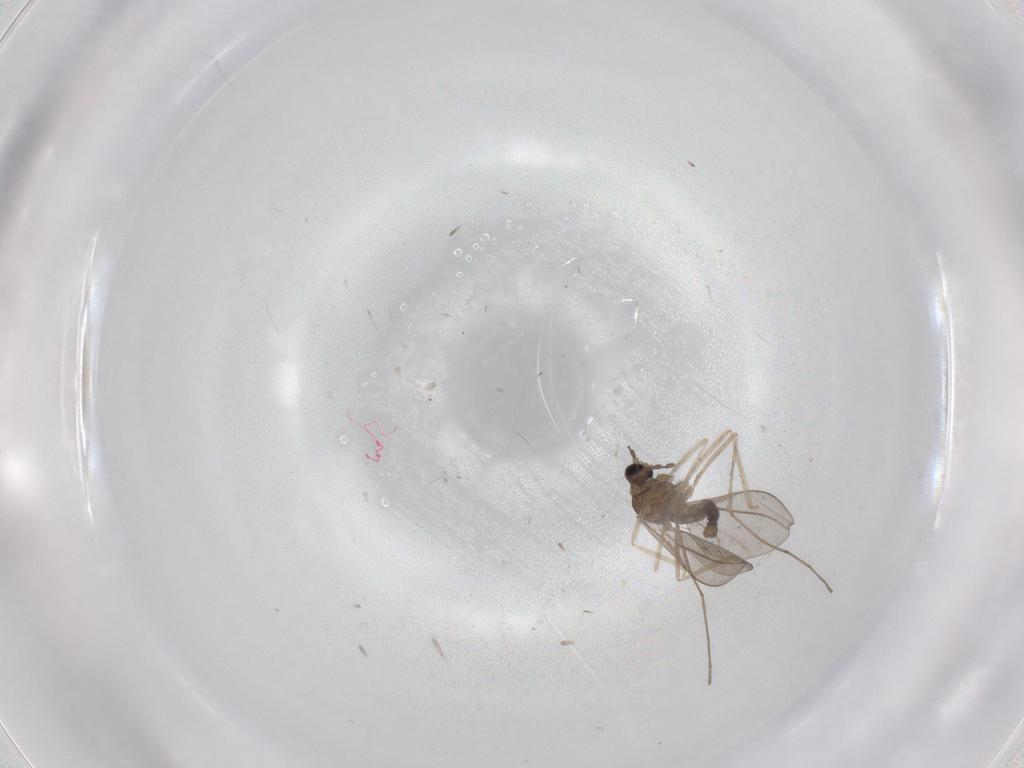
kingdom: Animalia
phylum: Arthropoda
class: Insecta
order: Diptera
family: Cecidomyiidae
